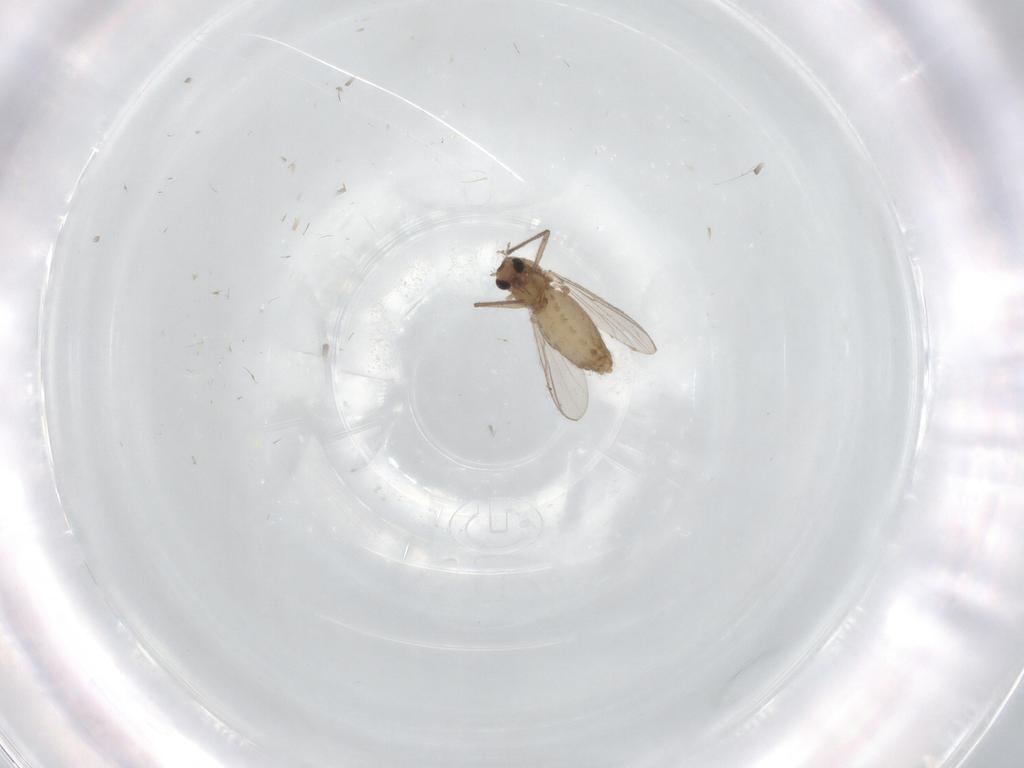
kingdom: Animalia
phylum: Arthropoda
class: Insecta
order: Diptera
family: Chironomidae
